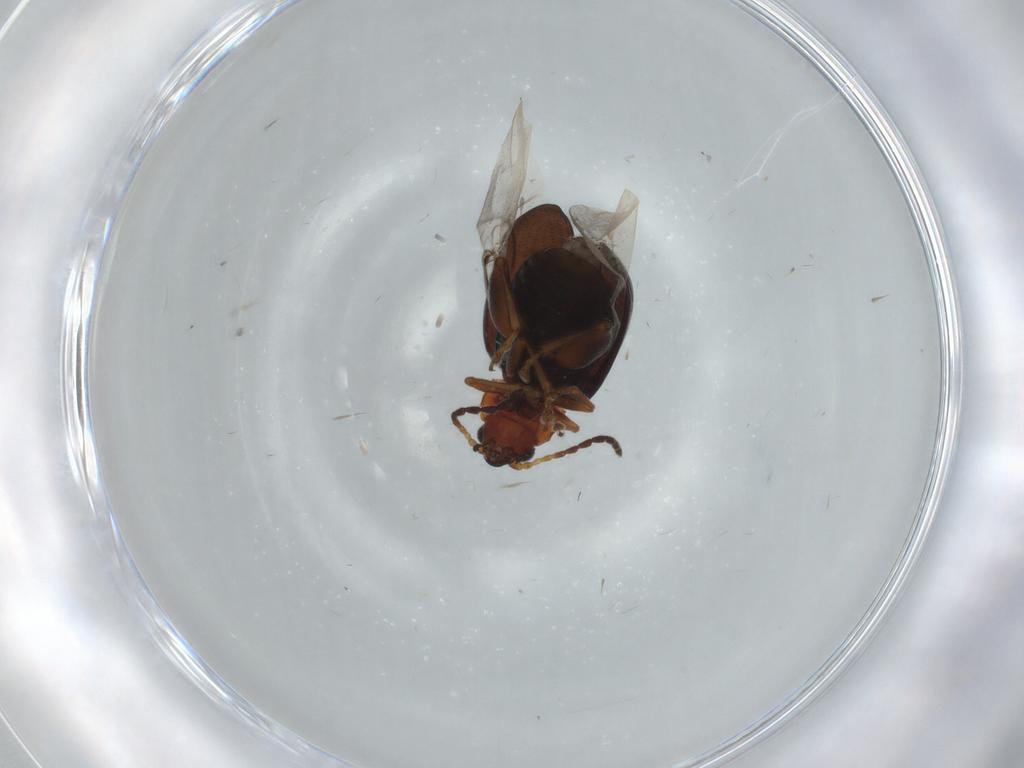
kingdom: Animalia
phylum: Arthropoda
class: Insecta
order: Coleoptera
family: Chrysomelidae
